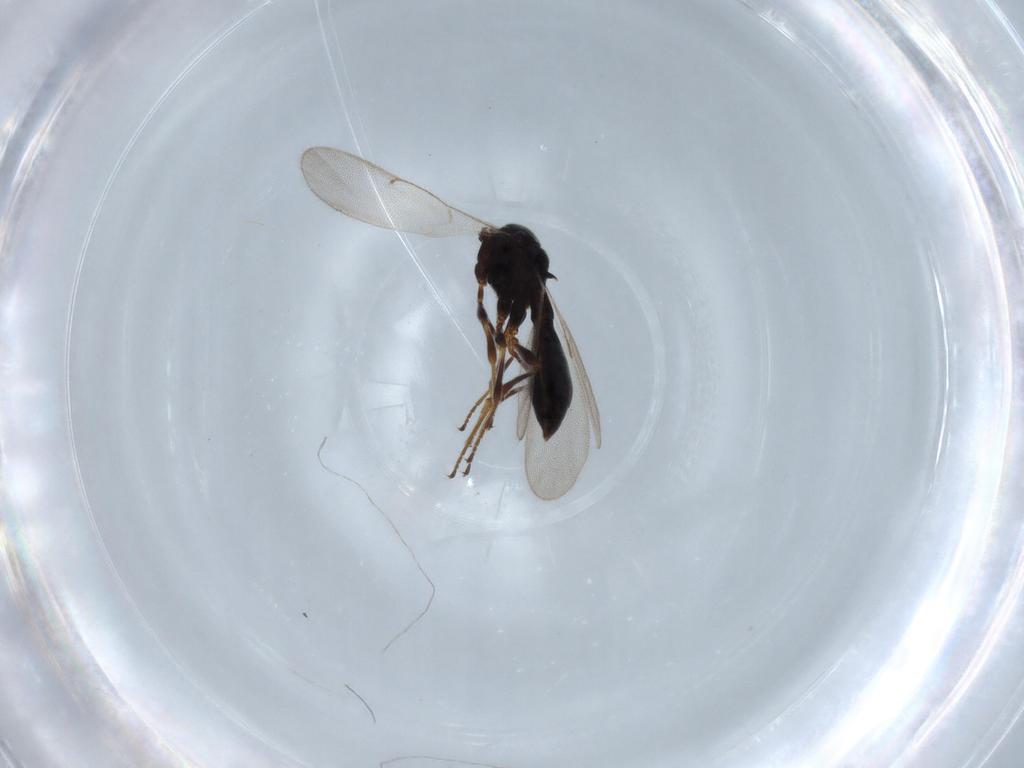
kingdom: Animalia
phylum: Arthropoda
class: Insecta
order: Hymenoptera
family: Scelionidae
